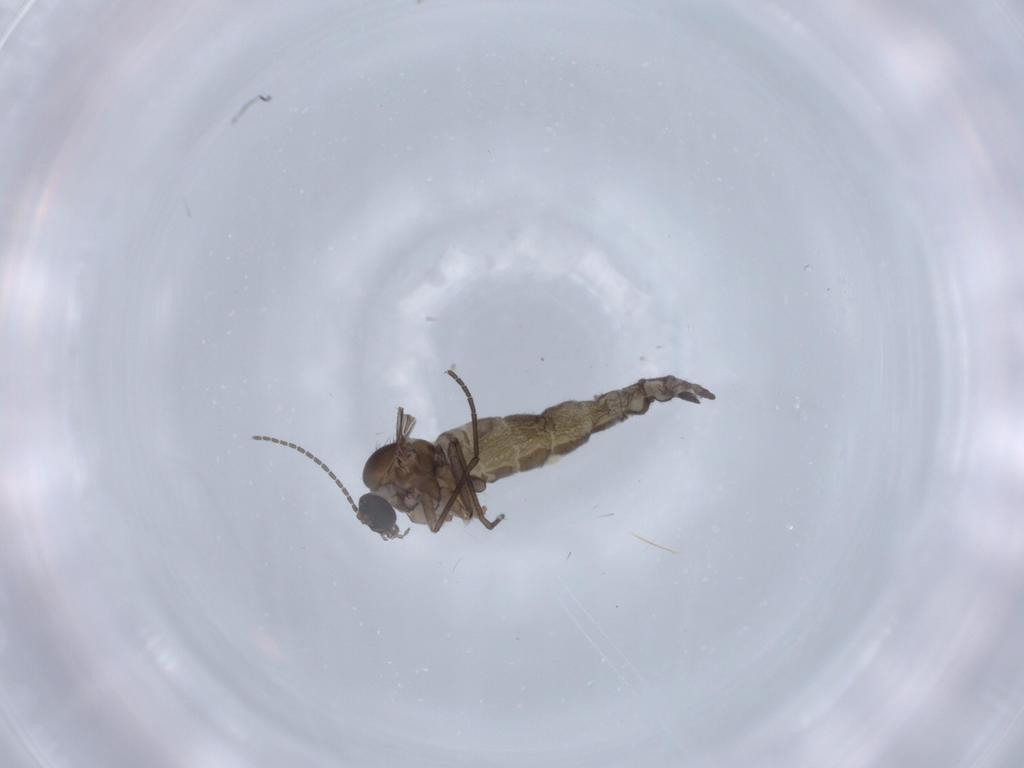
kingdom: Animalia
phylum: Arthropoda
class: Insecta
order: Diptera
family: Sciaridae
